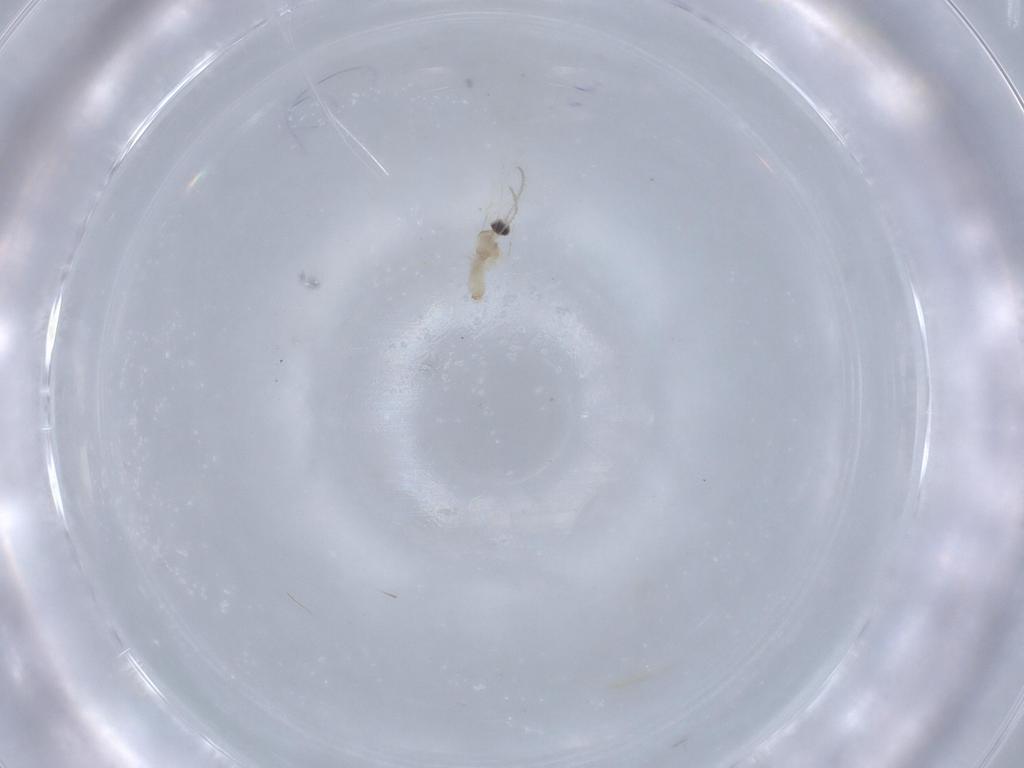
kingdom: Animalia
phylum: Arthropoda
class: Insecta
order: Diptera
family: Cecidomyiidae
